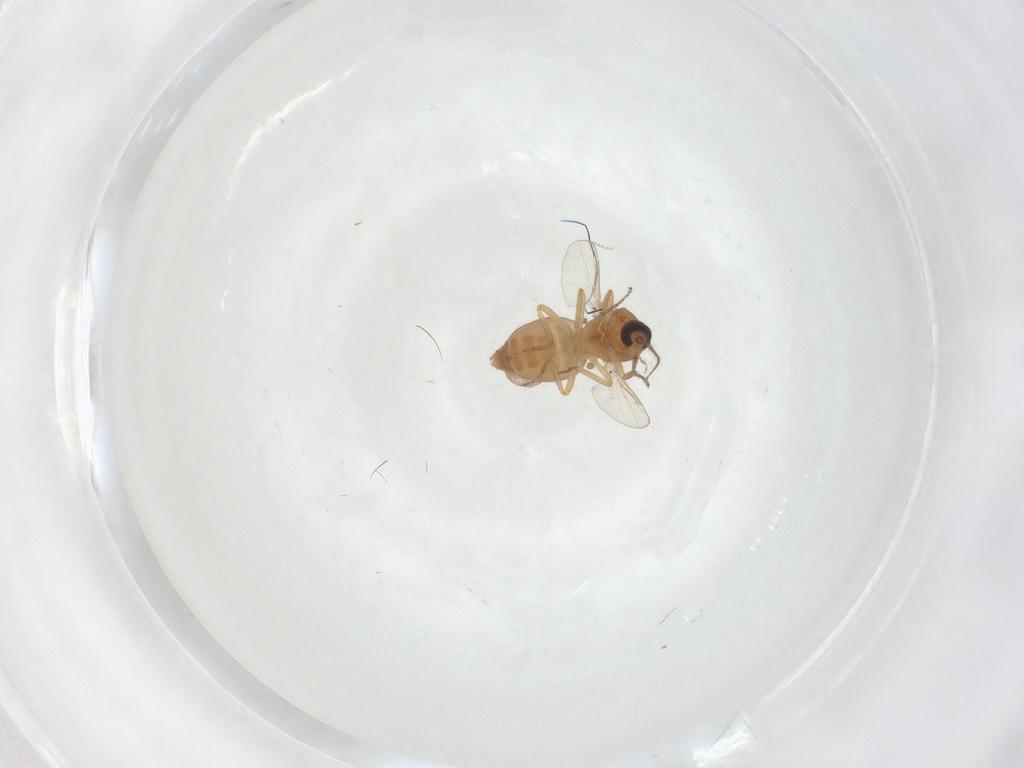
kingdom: Animalia
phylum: Arthropoda
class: Insecta
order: Diptera
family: Ceratopogonidae
